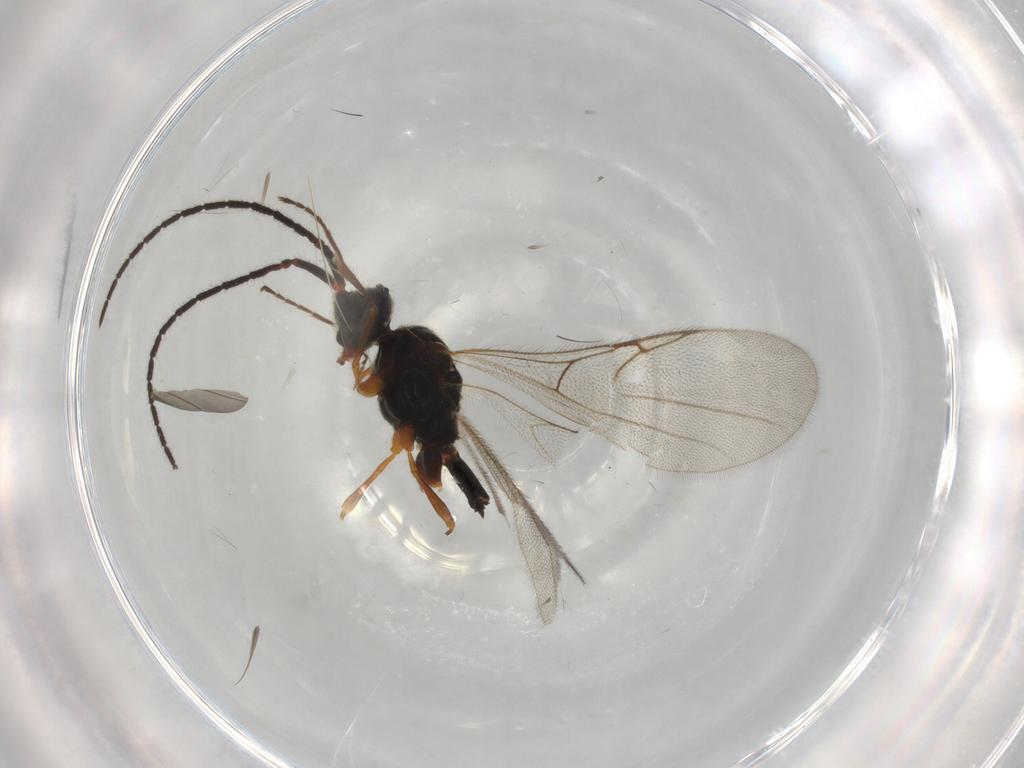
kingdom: Animalia
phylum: Arthropoda
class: Insecta
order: Hymenoptera
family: Diapriidae
